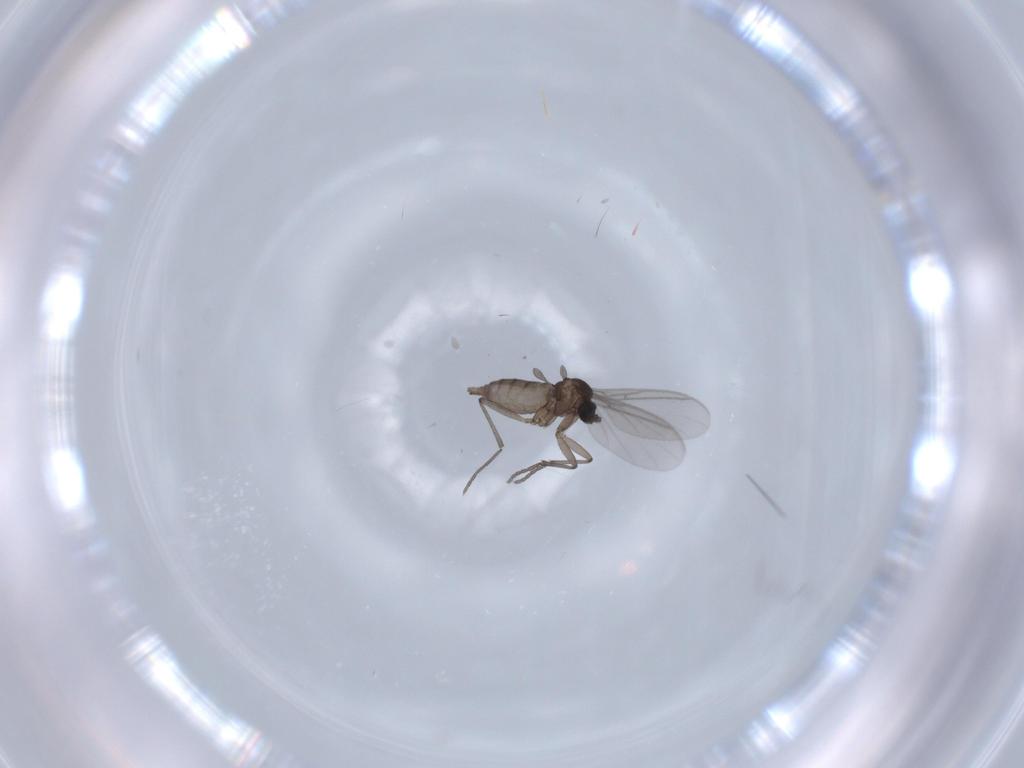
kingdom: Animalia
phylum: Arthropoda
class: Insecta
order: Diptera
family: Sciaridae
